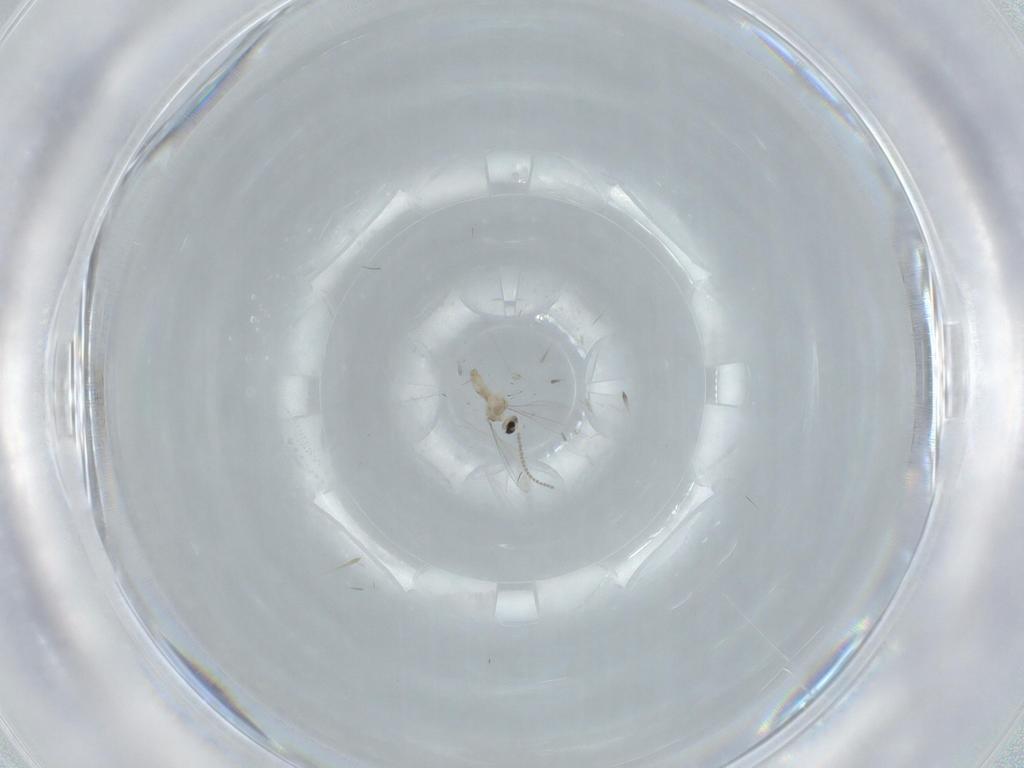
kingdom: Animalia
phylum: Arthropoda
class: Insecta
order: Diptera
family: Cecidomyiidae
